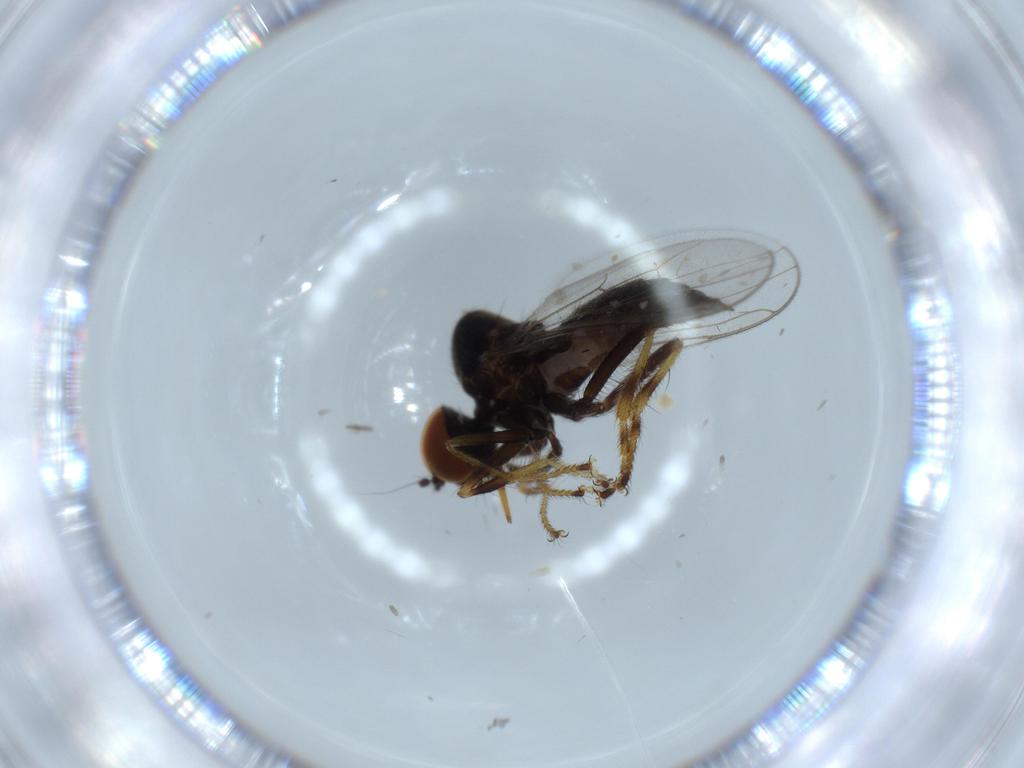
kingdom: Animalia
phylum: Arthropoda
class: Insecta
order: Diptera
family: Hybotidae
